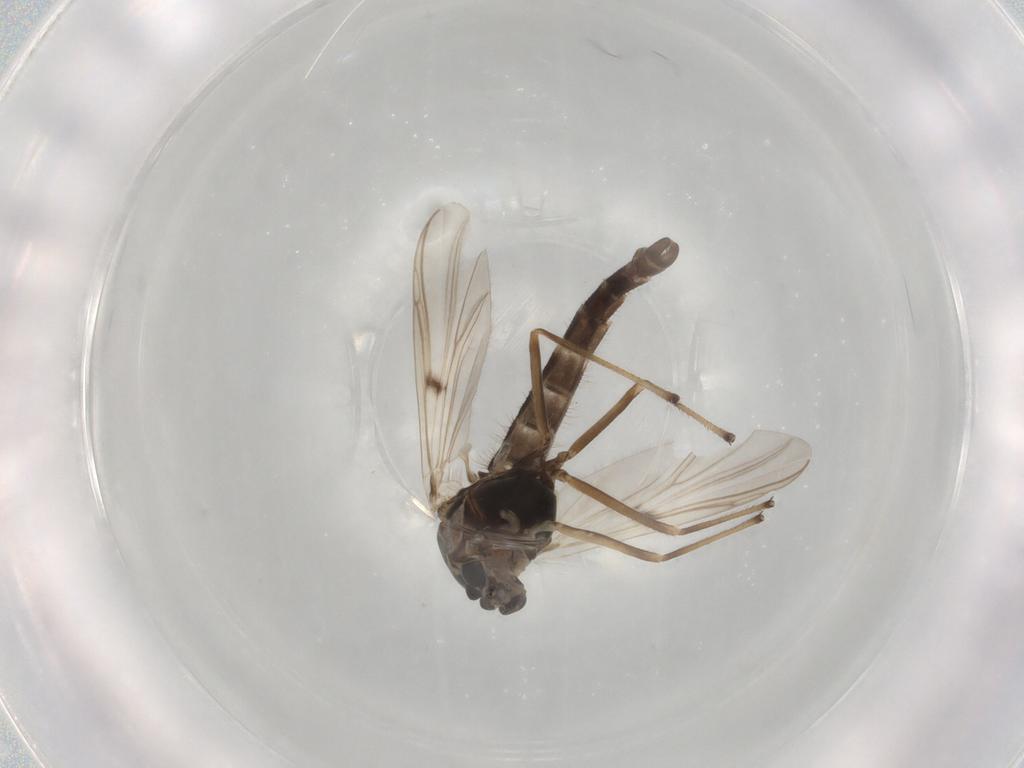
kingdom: Animalia
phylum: Arthropoda
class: Insecta
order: Diptera
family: Chironomidae
